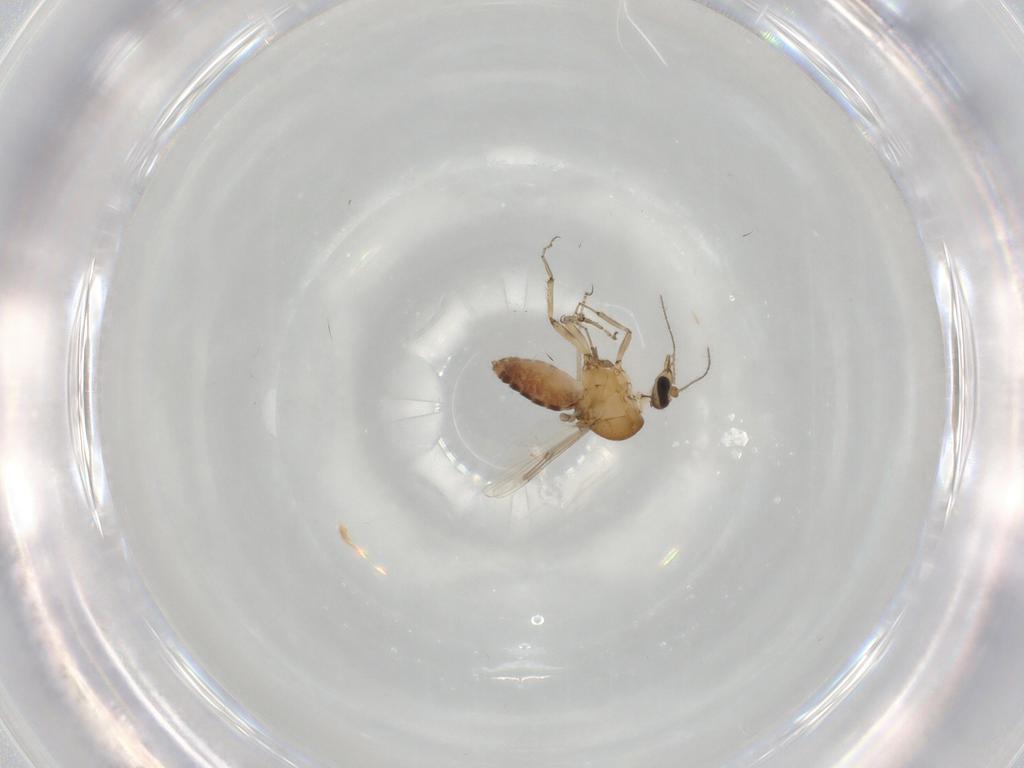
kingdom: Animalia
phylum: Arthropoda
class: Insecta
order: Diptera
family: Ceratopogonidae
